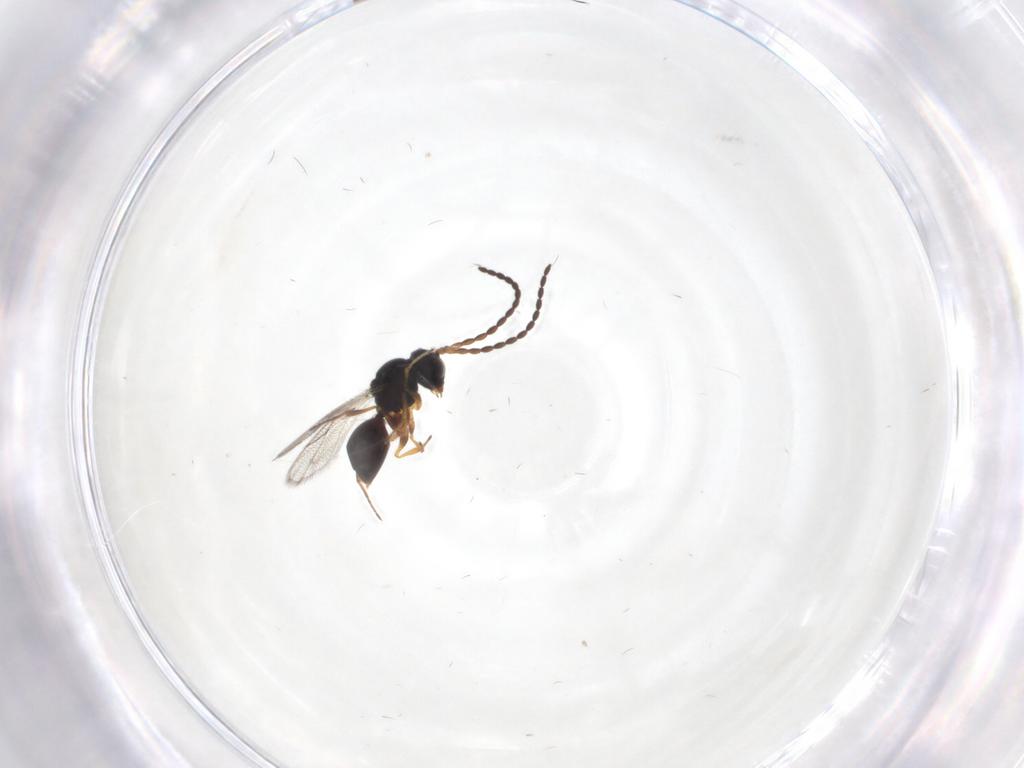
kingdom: Animalia
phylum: Arthropoda
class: Insecta
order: Hymenoptera
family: Figitidae
